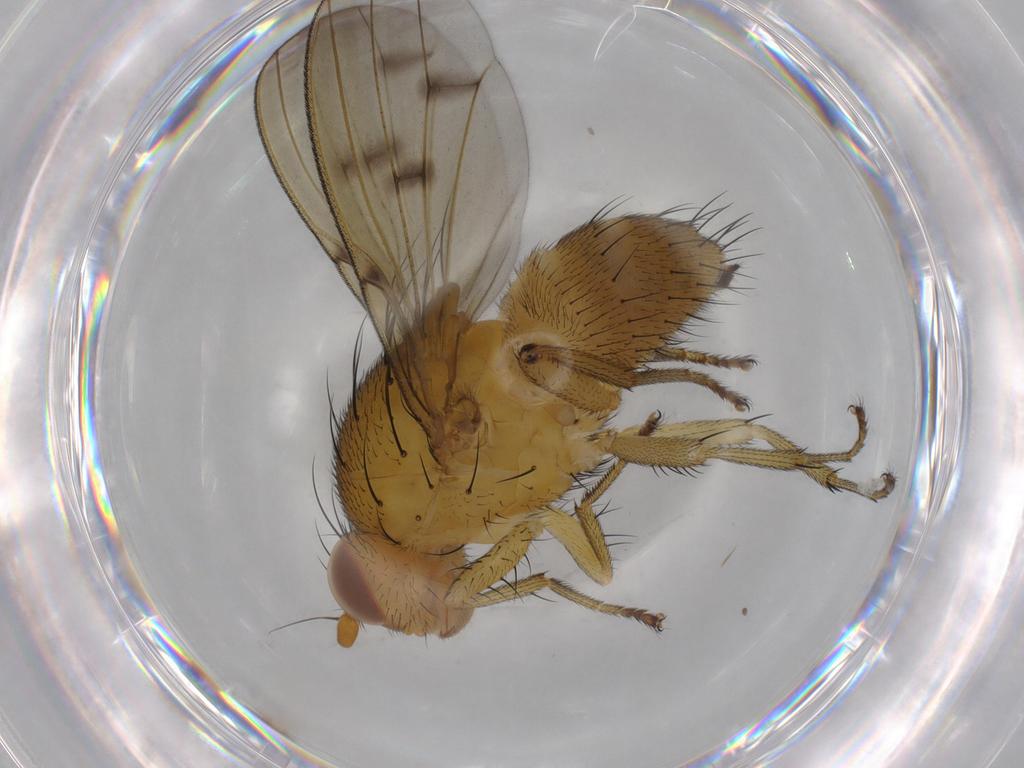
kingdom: Animalia
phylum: Arthropoda
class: Insecta
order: Diptera
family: Lauxaniidae
